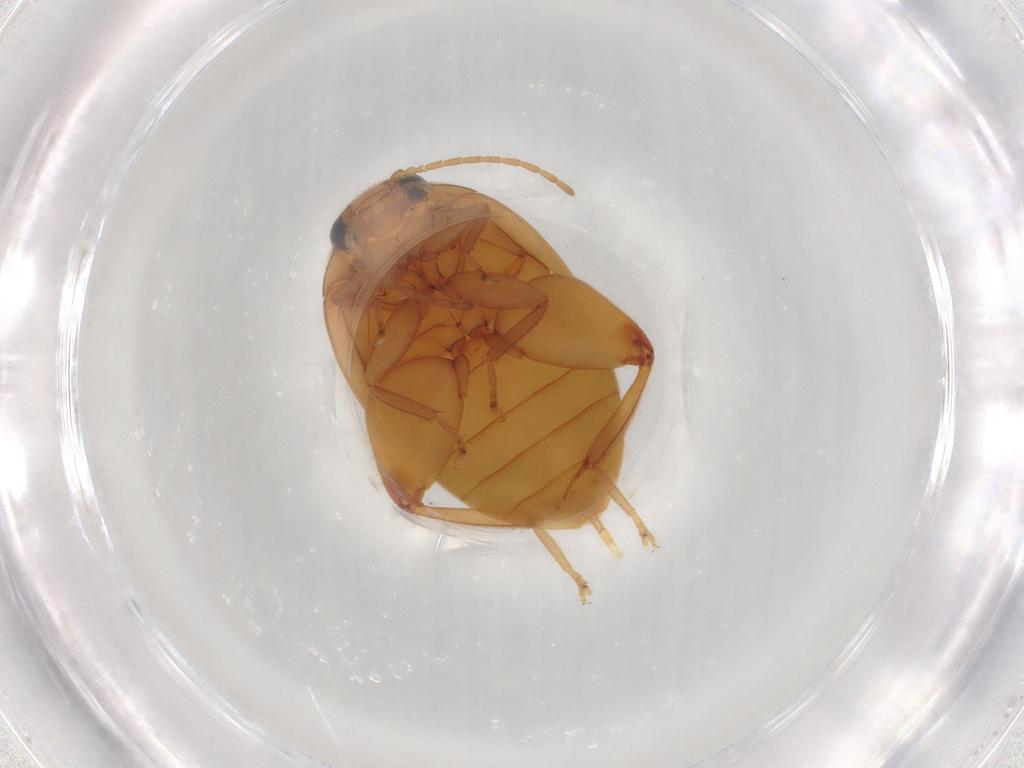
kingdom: Animalia
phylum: Arthropoda
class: Insecta
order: Coleoptera
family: Scirtidae
